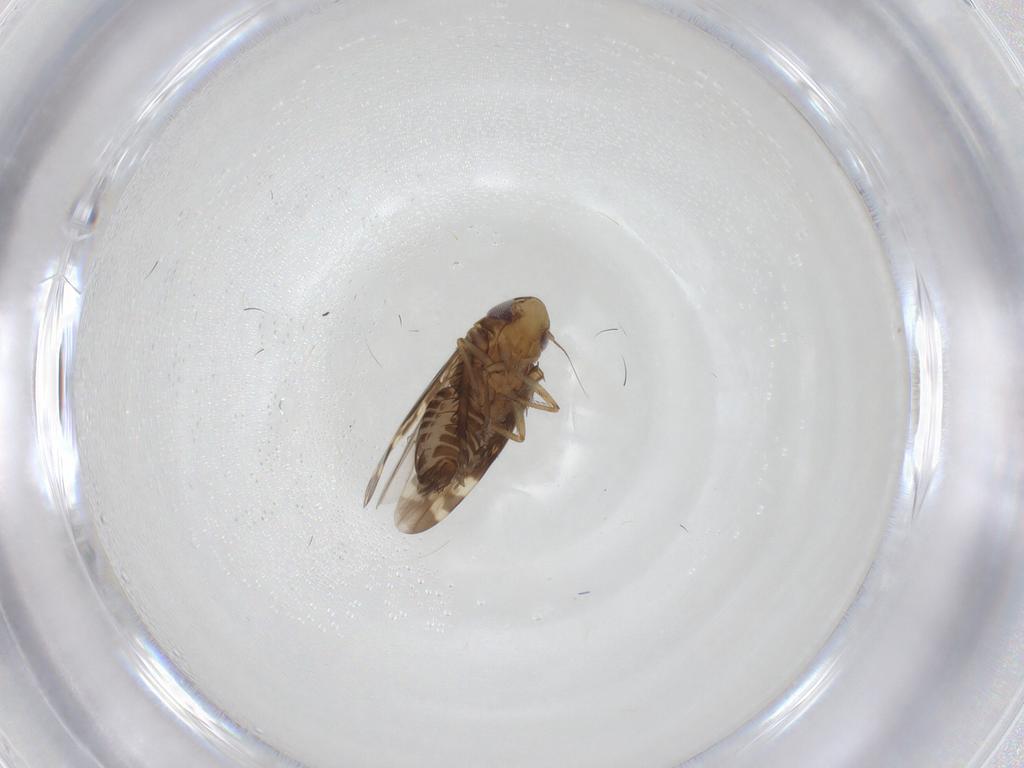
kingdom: Animalia
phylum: Arthropoda
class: Insecta
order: Hemiptera
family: Cicadellidae
